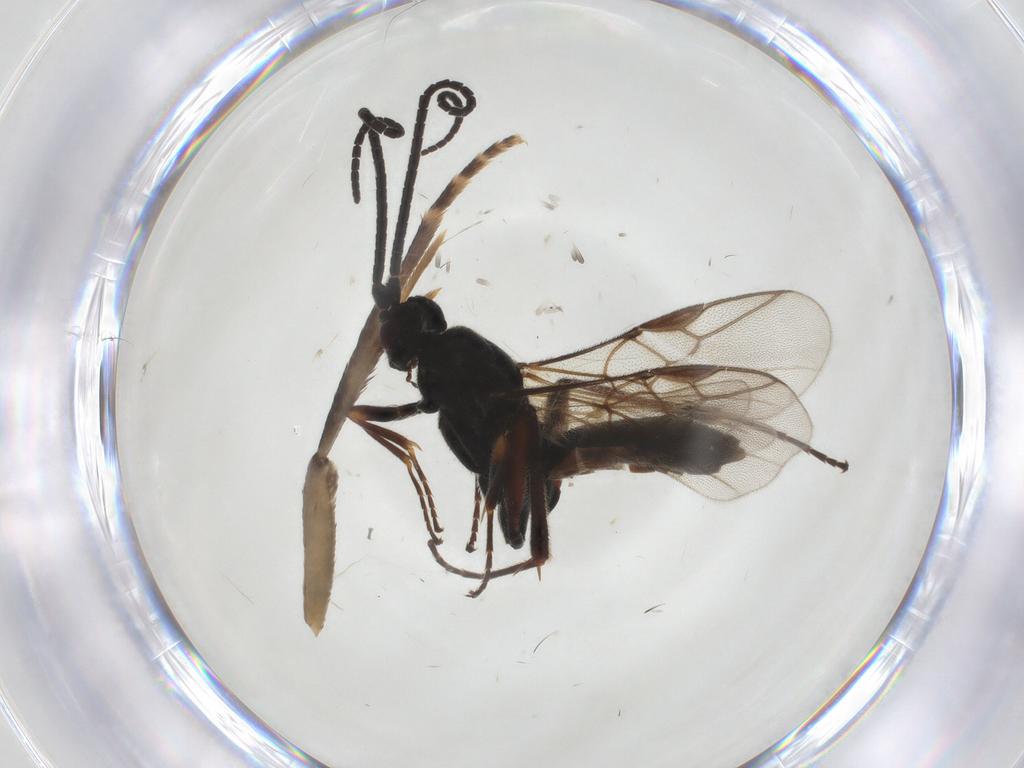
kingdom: Animalia
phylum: Arthropoda
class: Insecta
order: Hymenoptera
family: Braconidae
